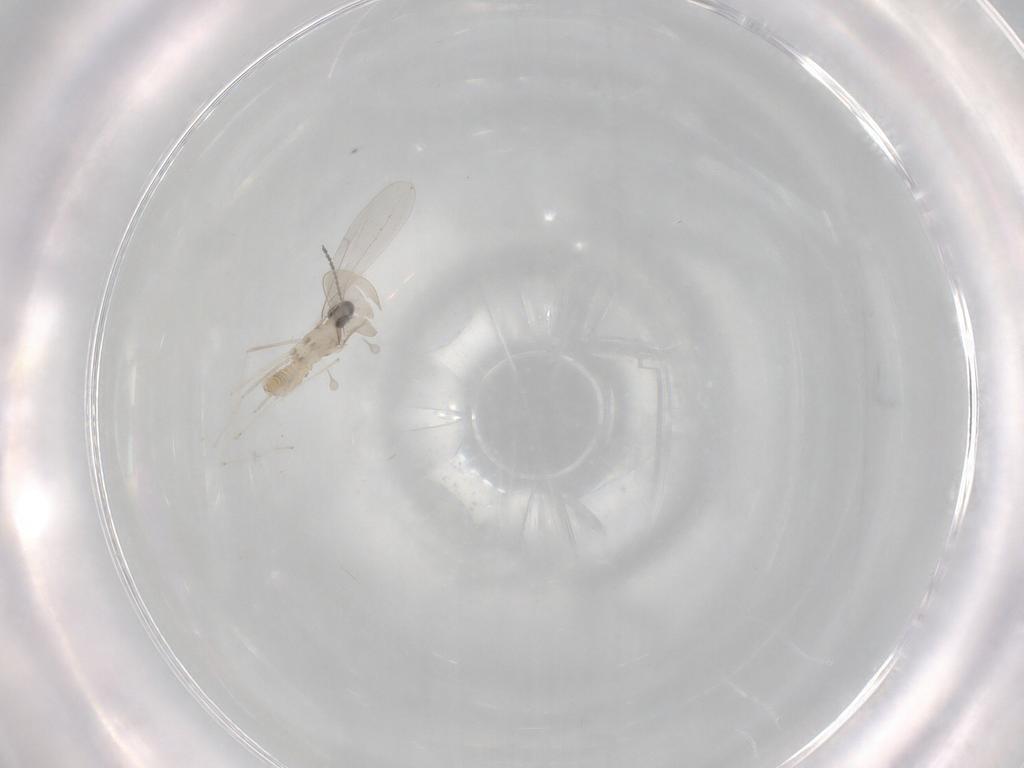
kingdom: Animalia
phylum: Arthropoda
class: Insecta
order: Diptera
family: Cecidomyiidae
